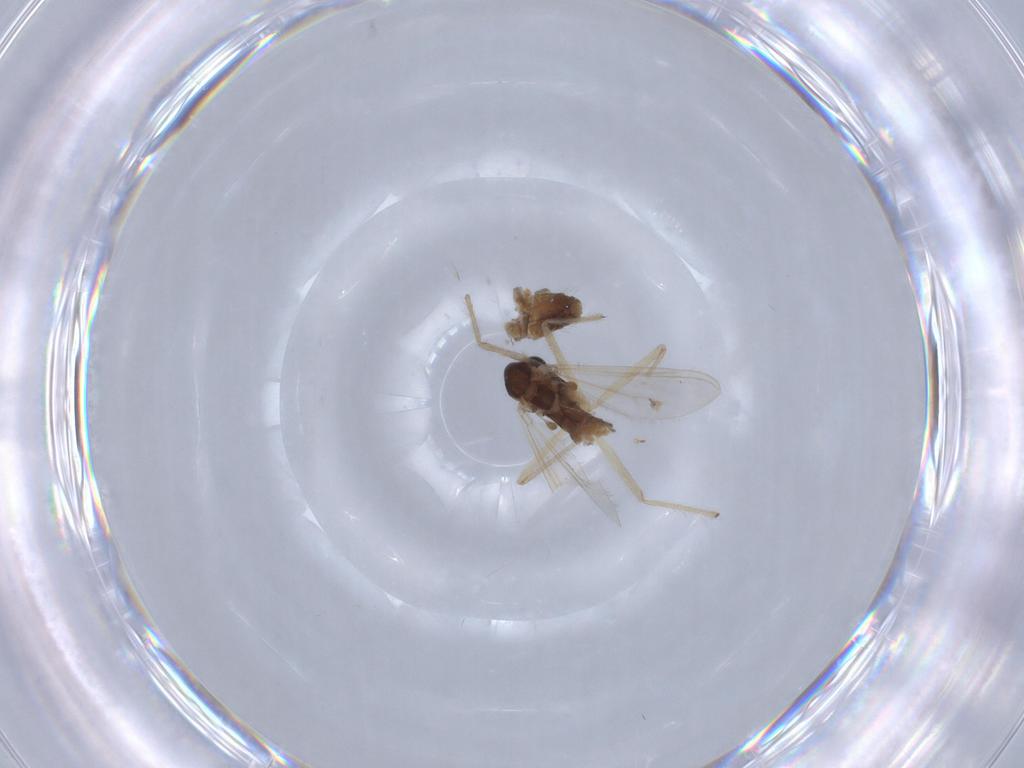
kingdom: Animalia
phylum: Arthropoda
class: Insecta
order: Diptera
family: Chironomidae
